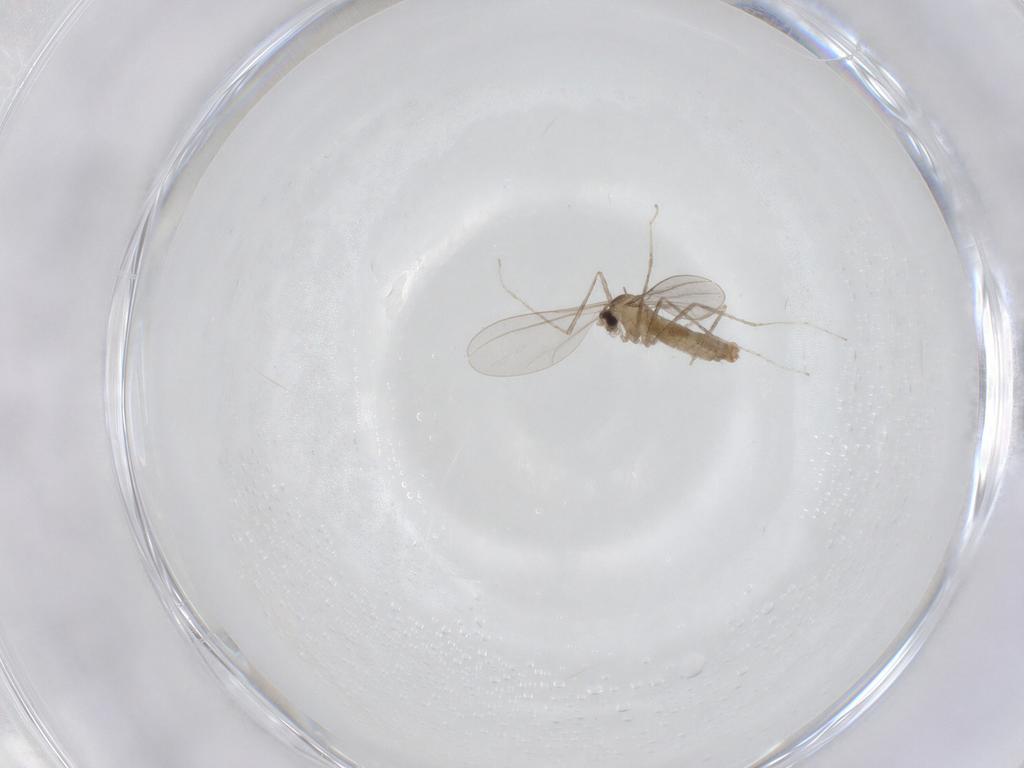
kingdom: Animalia
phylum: Arthropoda
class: Insecta
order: Diptera
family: Cecidomyiidae
